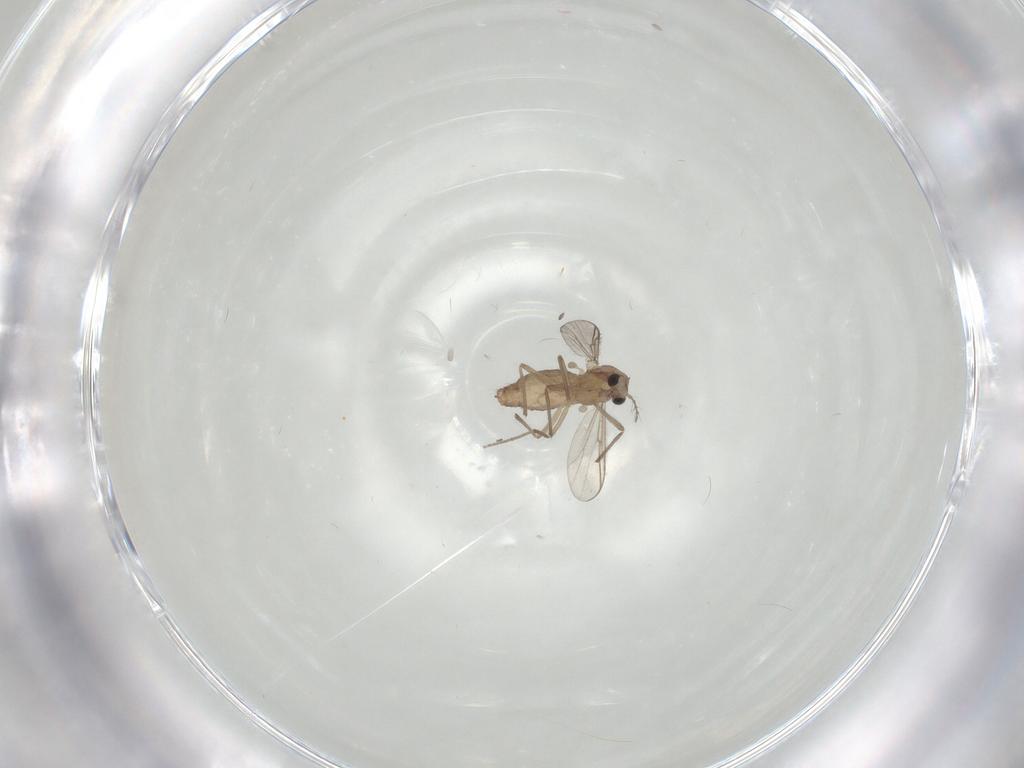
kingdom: Animalia
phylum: Arthropoda
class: Insecta
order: Diptera
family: Chironomidae
